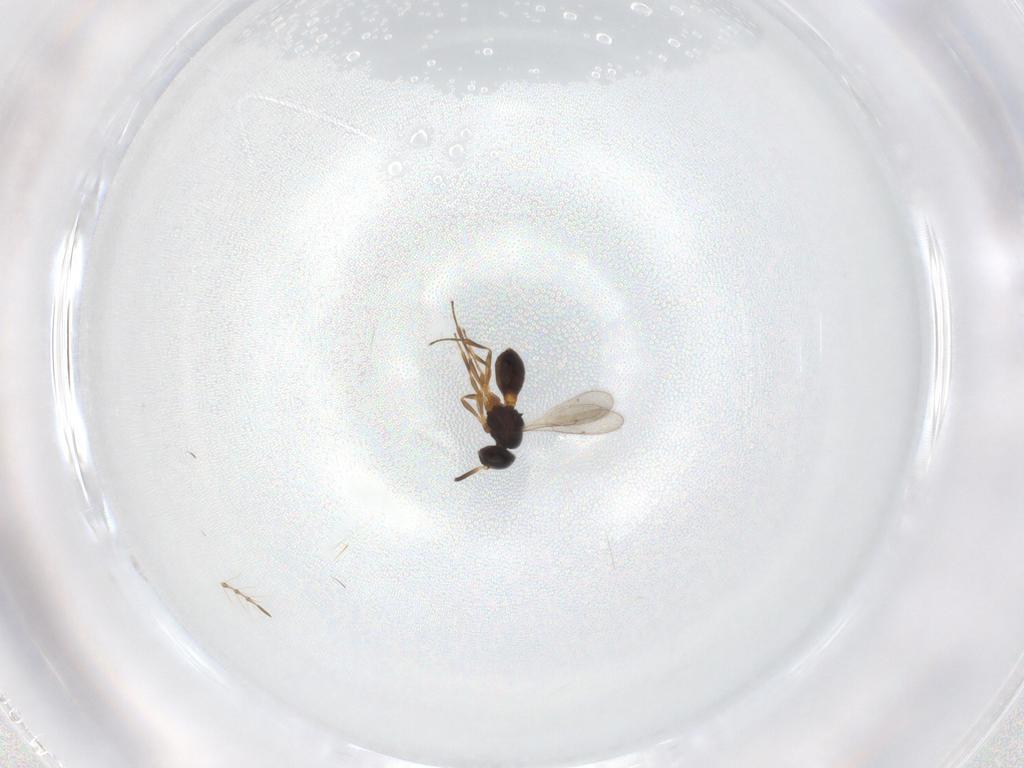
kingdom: Animalia
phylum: Arthropoda
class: Insecta
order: Hymenoptera
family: Scelionidae
